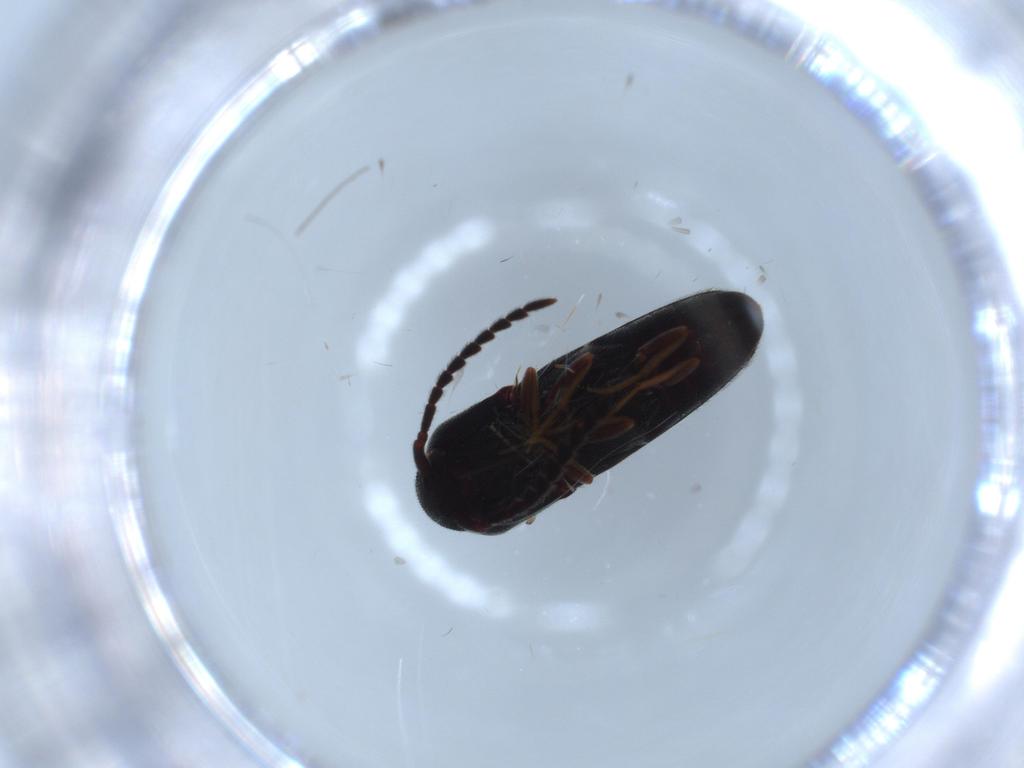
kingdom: Animalia
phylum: Arthropoda
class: Insecta
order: Coleoptera
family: Eucnemidae
